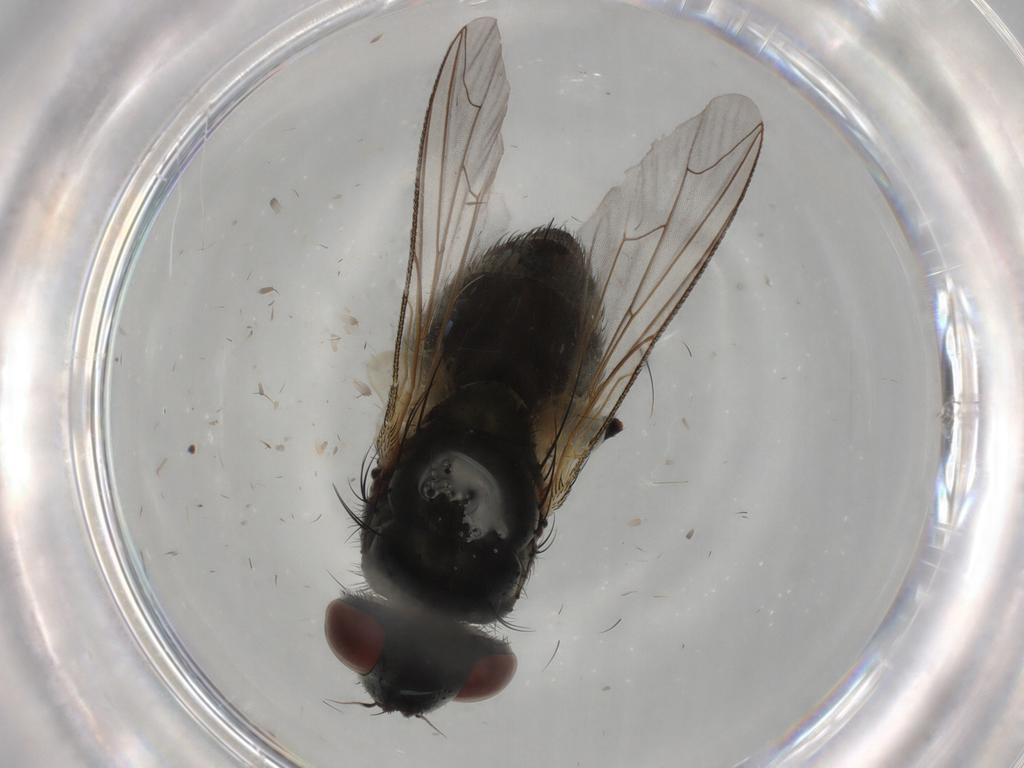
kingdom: Animalia
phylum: Arthropoda
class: Insecta
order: Diptera
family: Sarcophagidae
